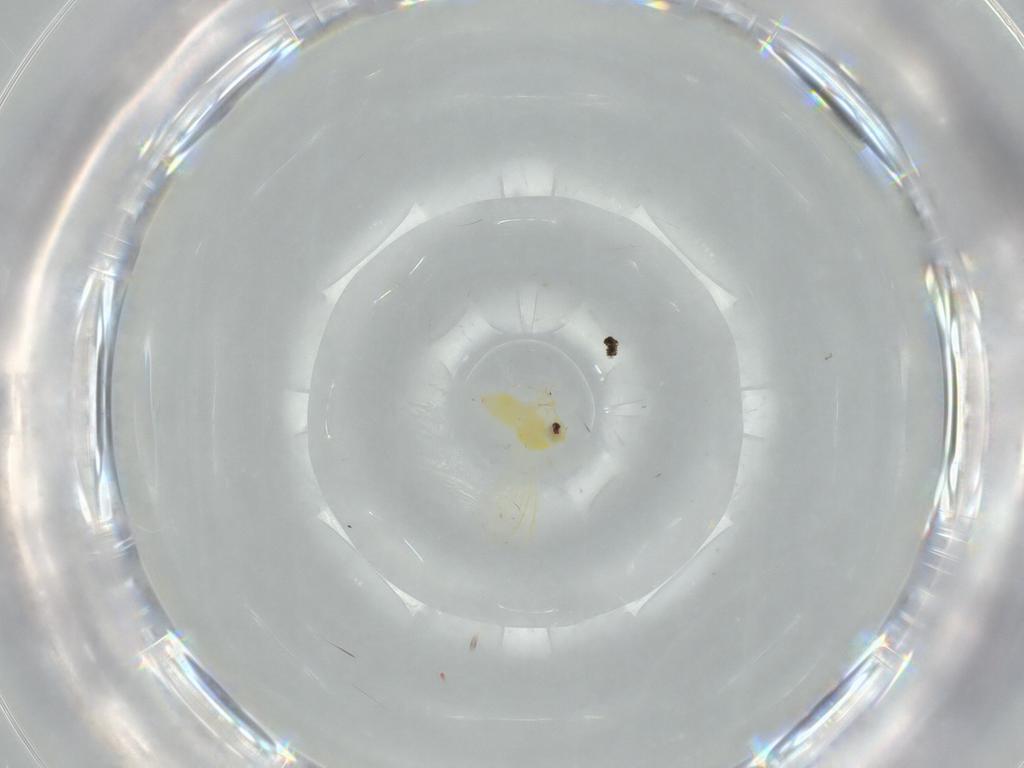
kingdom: Animalia
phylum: Arthropoda
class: Insecta
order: Hemiptera
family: Aleyrodidae
